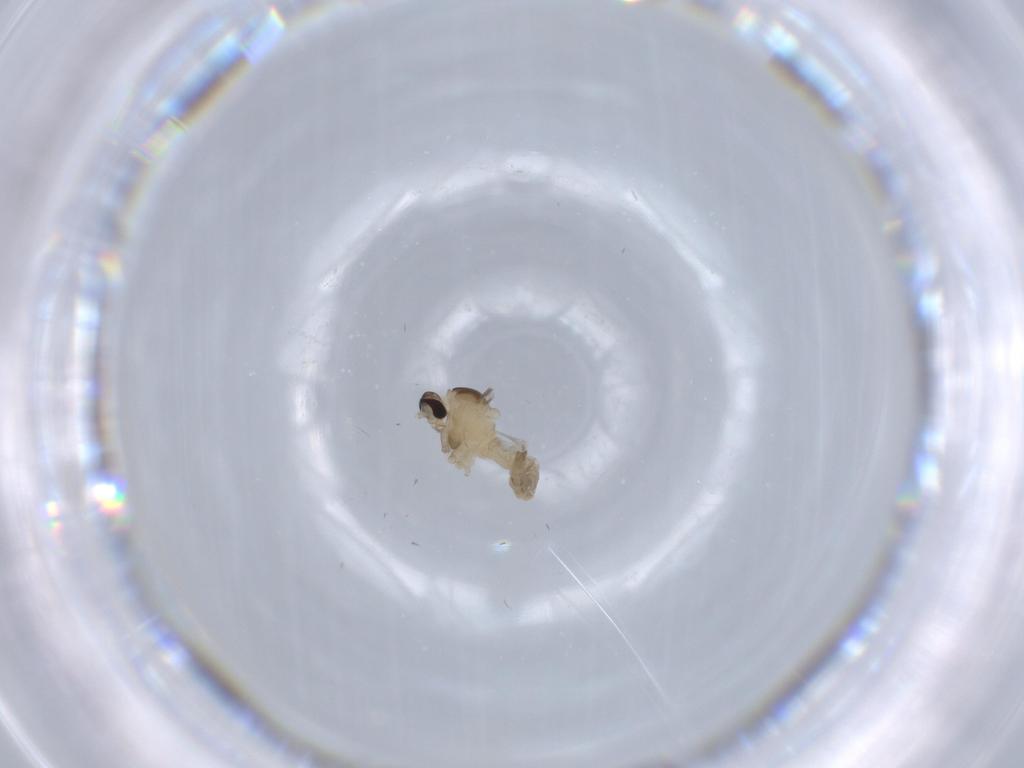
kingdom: Animalia
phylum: Arthropoda
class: Insecta
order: Diptera
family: Cecidomyiidae
